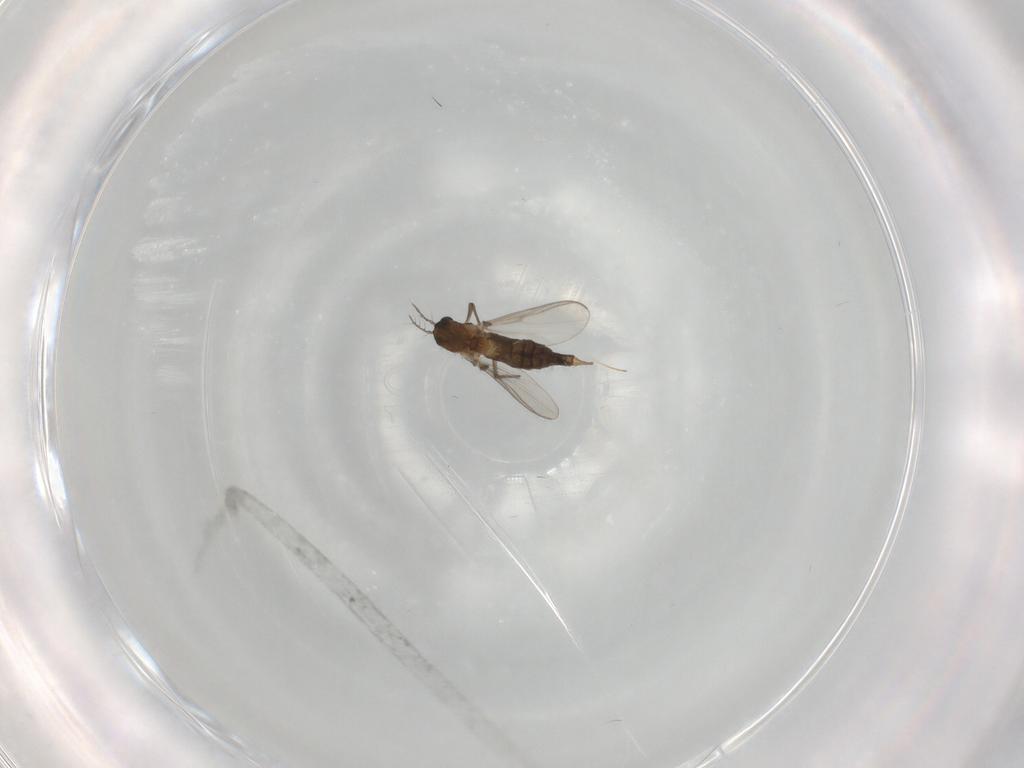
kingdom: Animalia
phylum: Arthropoda
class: Insecta
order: Diptera
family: Chironomidae
